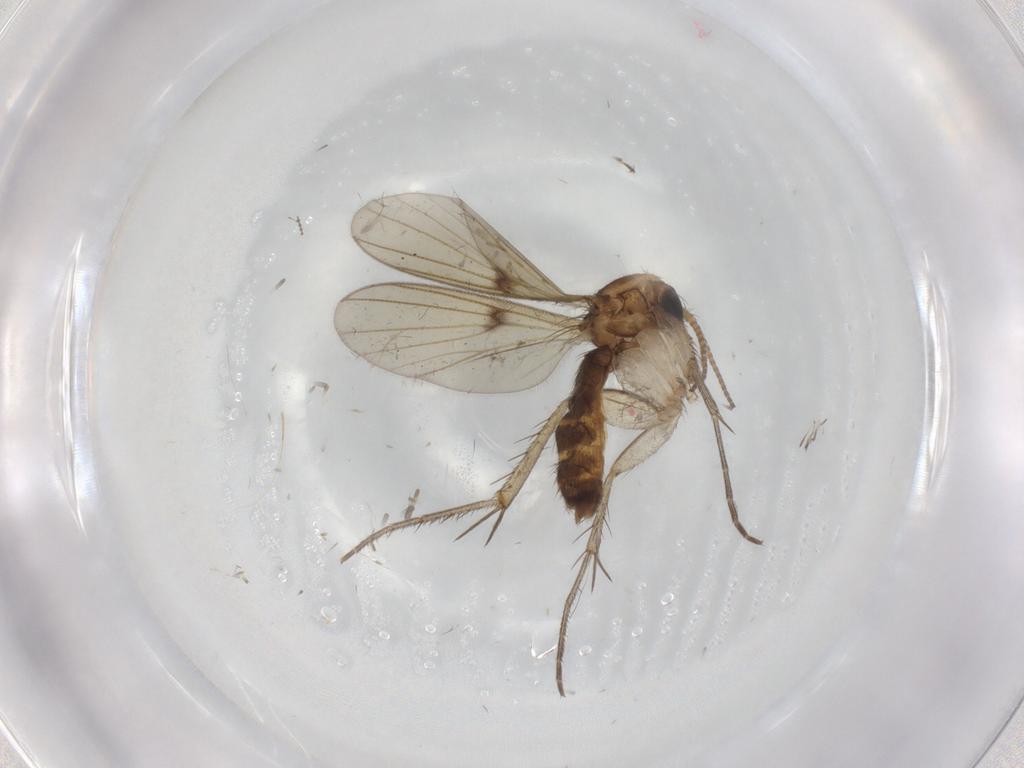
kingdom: Animalia
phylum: Arthropoda
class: Insecta
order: Diptera
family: Chironomidae
